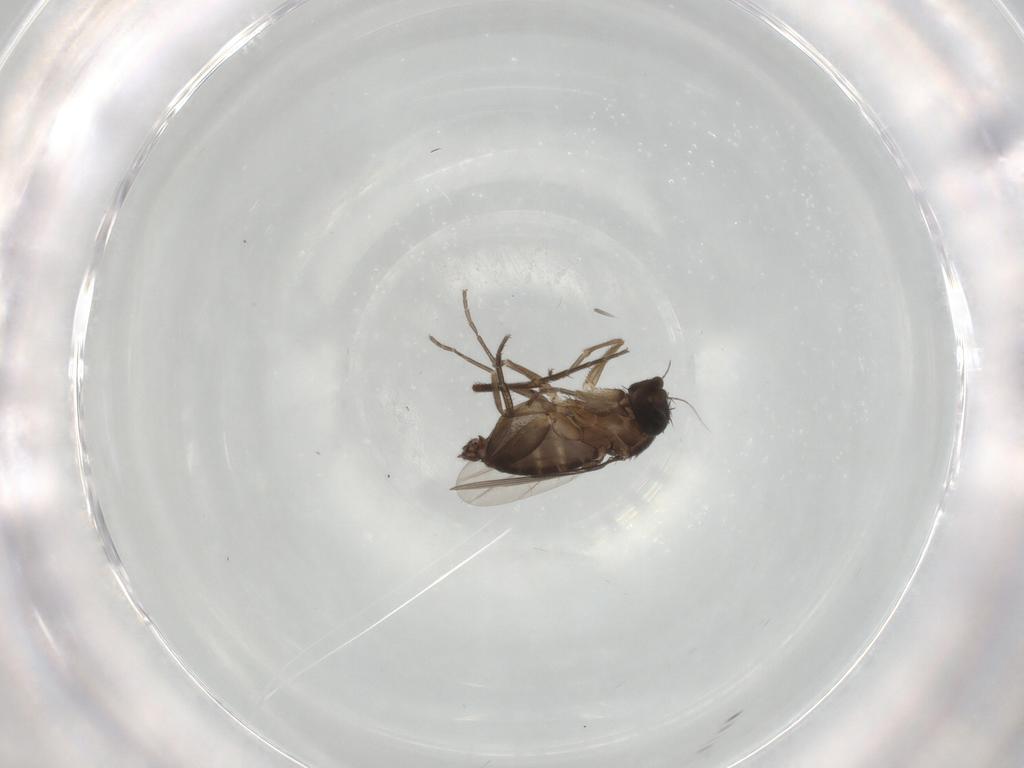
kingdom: Animalia
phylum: Arthropoda
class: Insecta
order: Diptera
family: Phoridae
